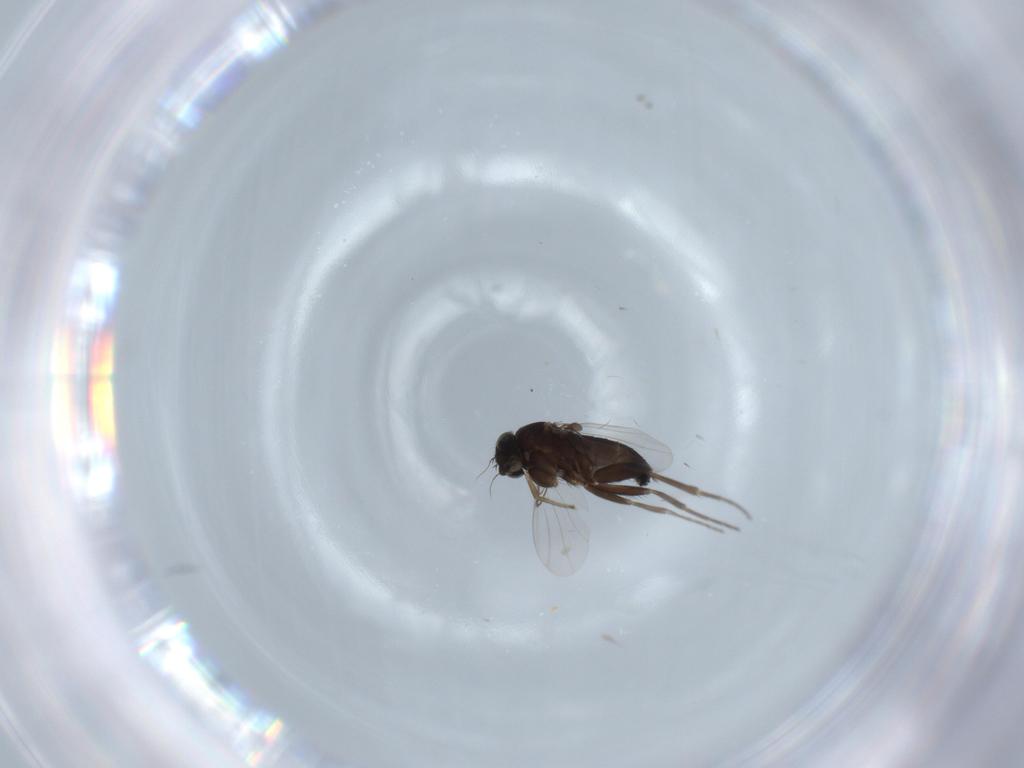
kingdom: Animalia
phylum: Arthropoda
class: Insecta
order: Diptera
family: Phoridae
